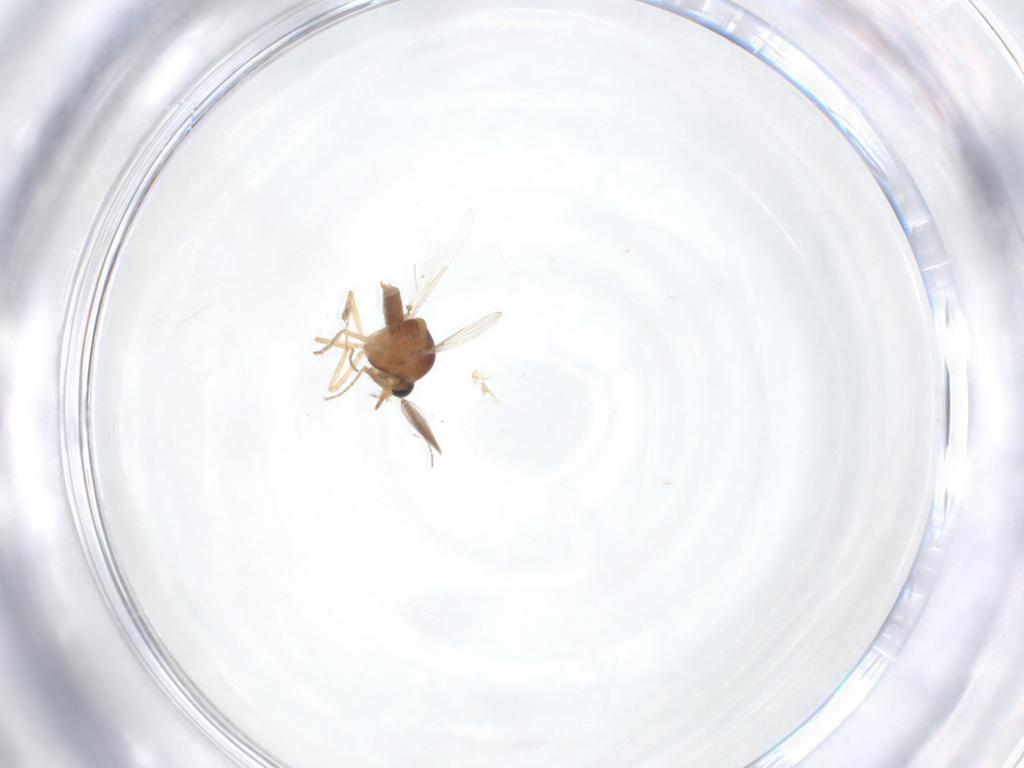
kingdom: Animalia
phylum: Arthropoda
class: Insecta
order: Diptera
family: Ceratopogonidae
